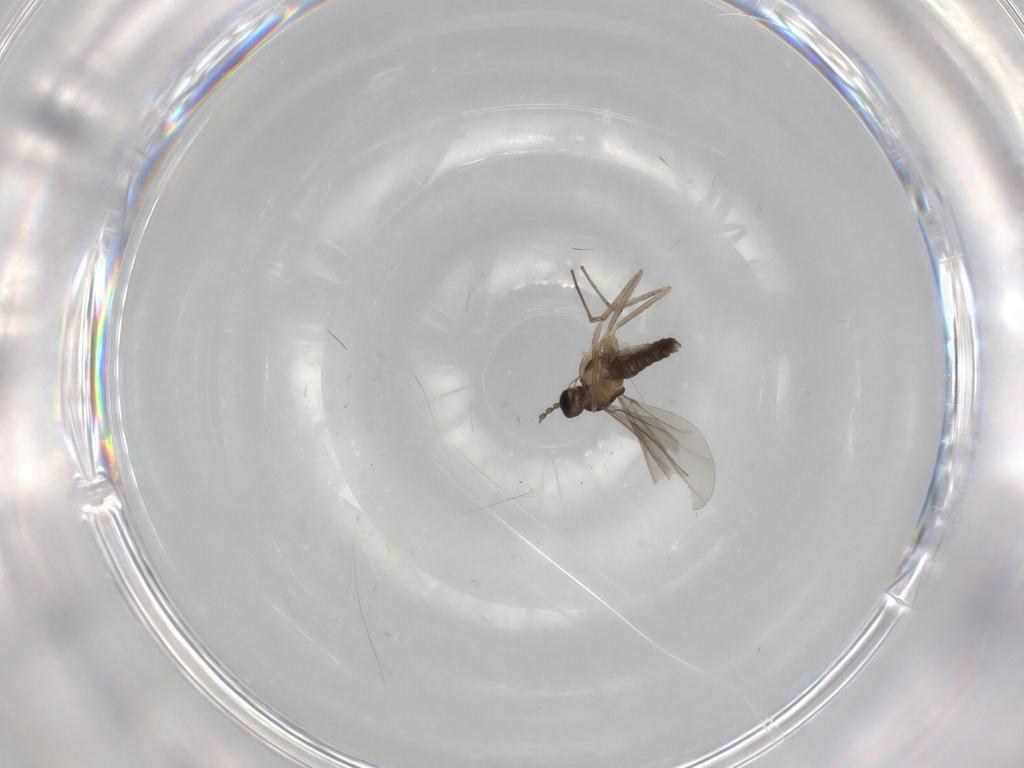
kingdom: Animalia
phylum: Arthropoda
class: Insecta
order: Diptera
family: Cecidomyiidae
